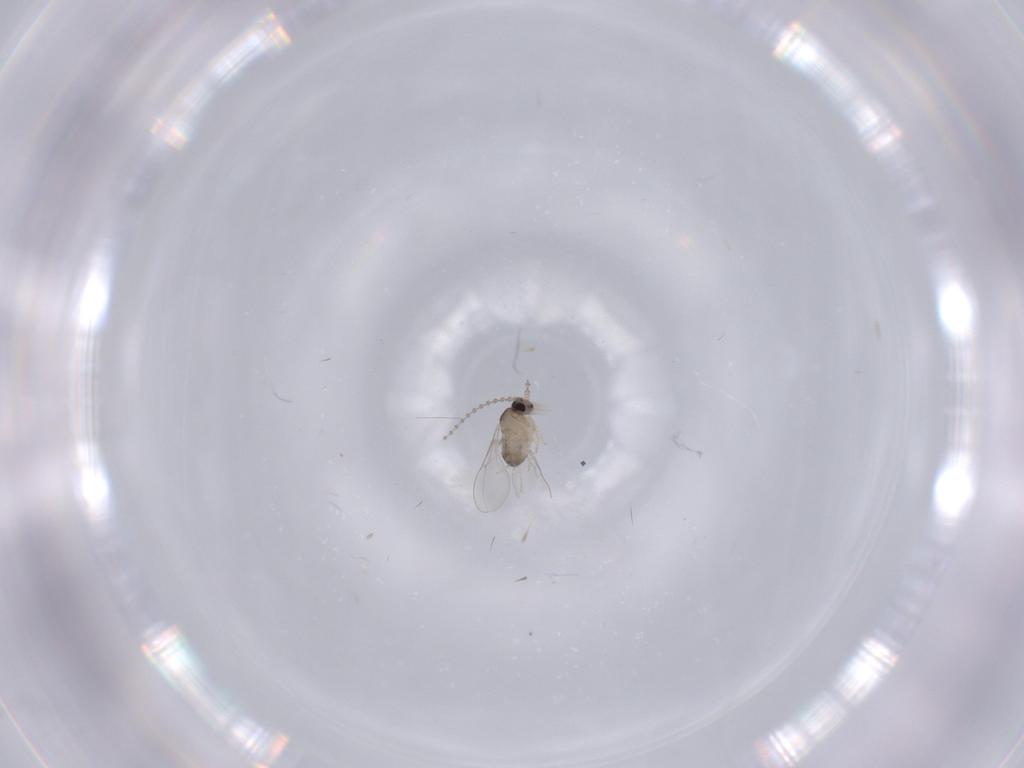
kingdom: Animalia
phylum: Arthropoda
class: Insecta
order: Diptera
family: Cecidomyiidae
